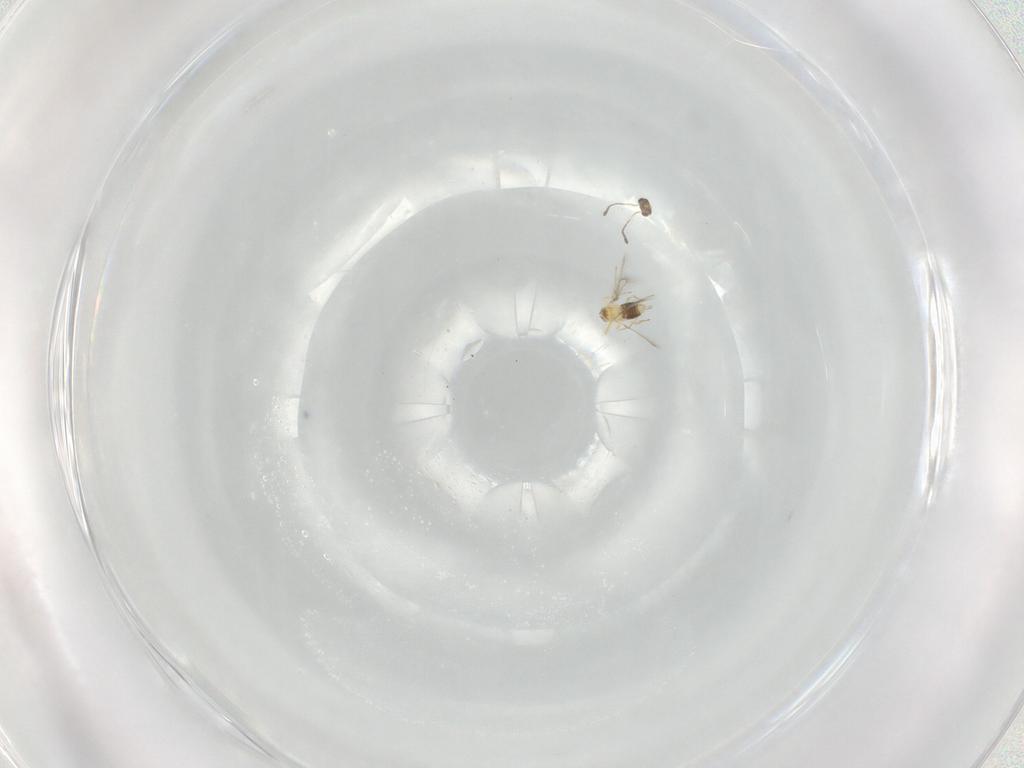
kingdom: Animalia
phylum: Arthropoda
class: Insecta
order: Hymenoptera
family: Mymaridae
